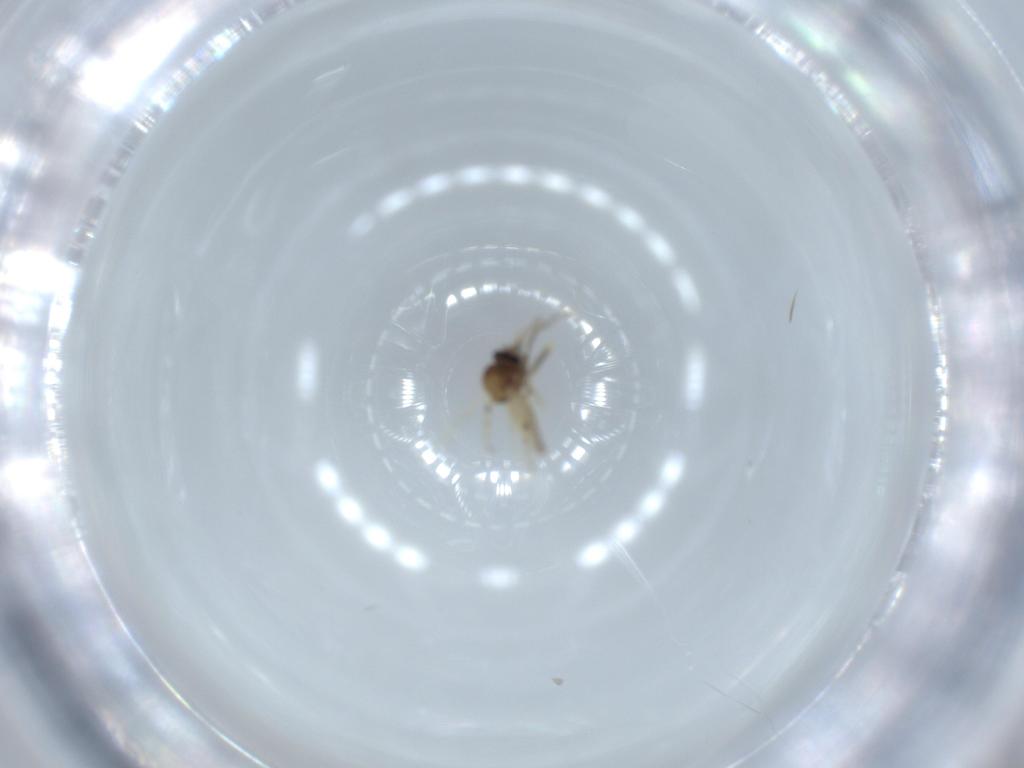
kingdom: Animalia
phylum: Arthropoda
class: Insecta
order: Diptera
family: Ceratopogonidae
